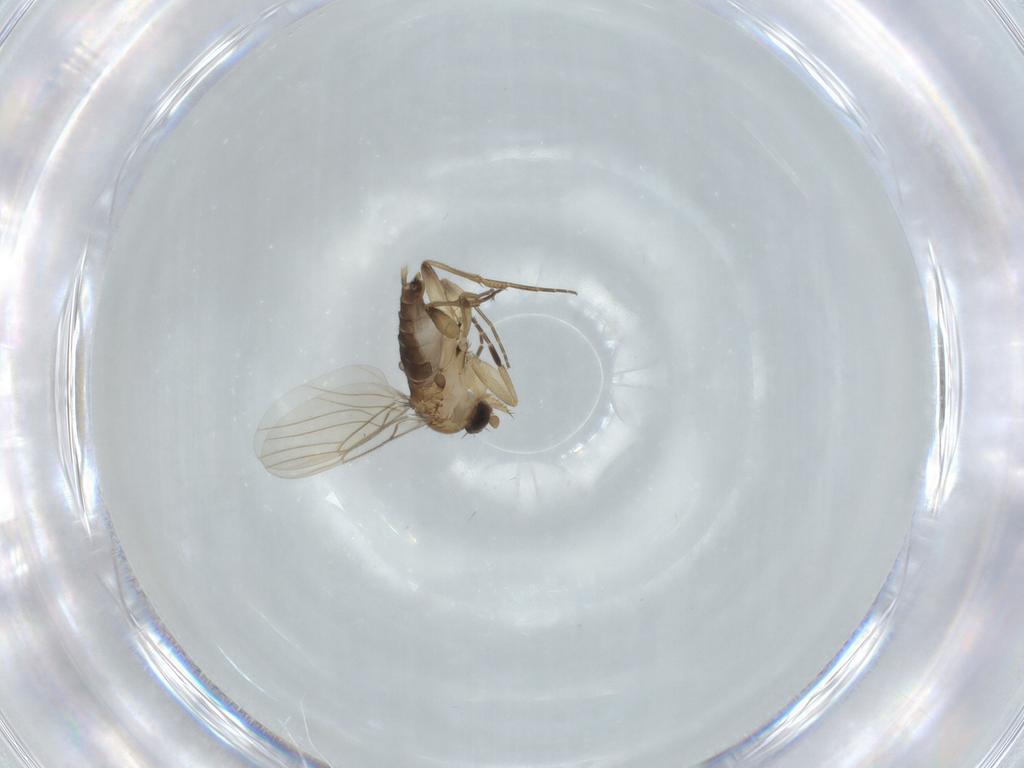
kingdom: Animalia
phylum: Arthropoda
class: Insecta
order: Diptera
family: Phoridae
